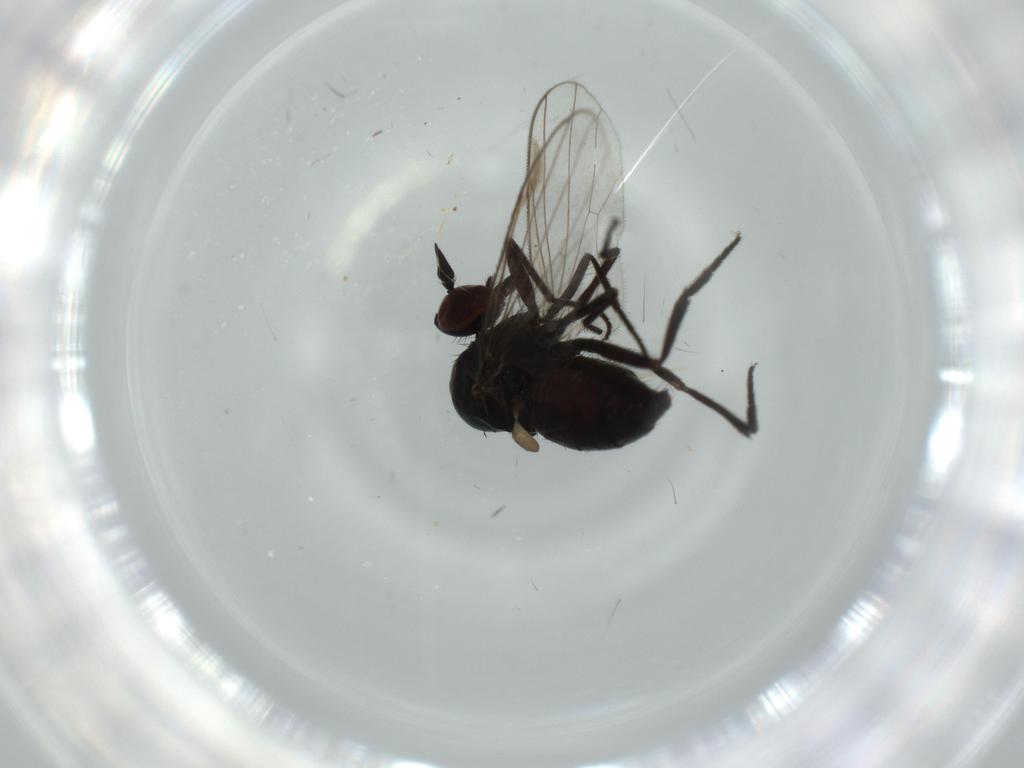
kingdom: Animalia
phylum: Arthropoda
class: Insecta
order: Diptera
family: Dolichopodidae
